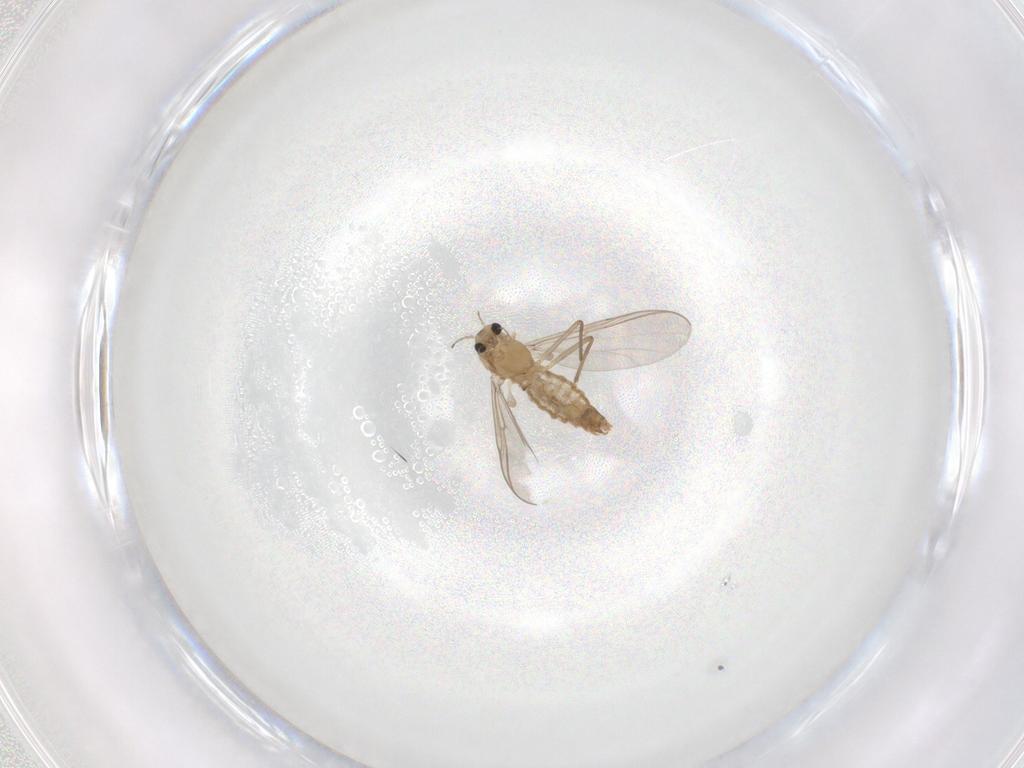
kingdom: Animalia
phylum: Arthropoda
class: Insecta
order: Diptera
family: Chironomidae
